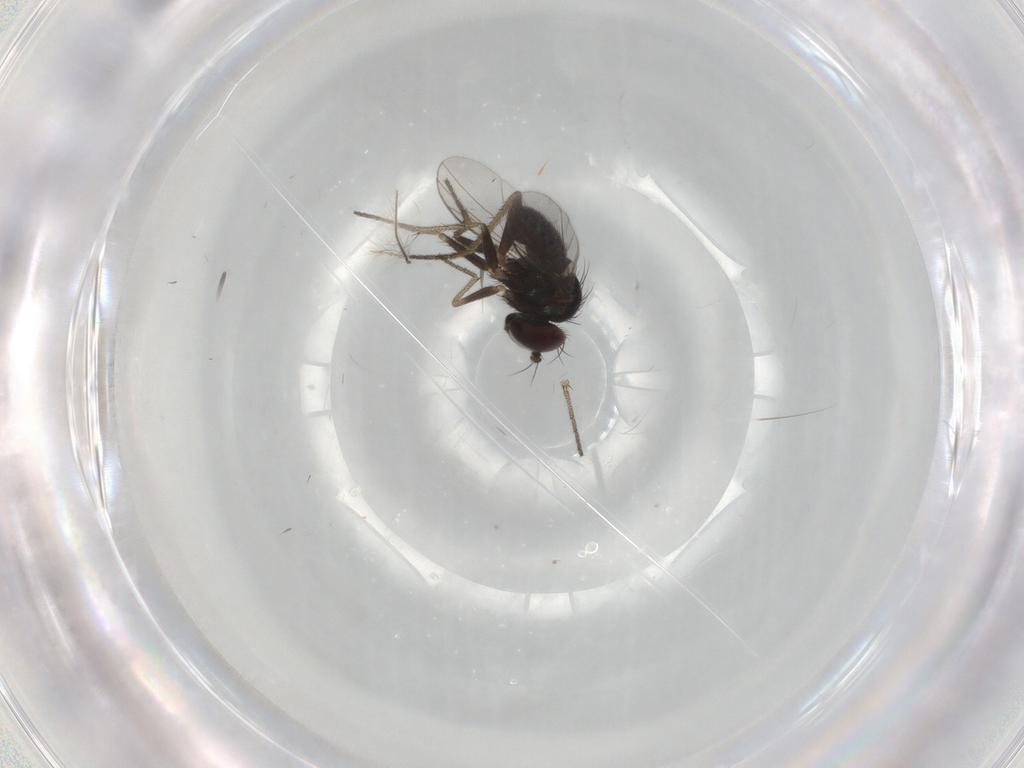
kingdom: Animalia
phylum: Arthropoda
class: Insecta
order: Diptera
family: Dolichopodidae
